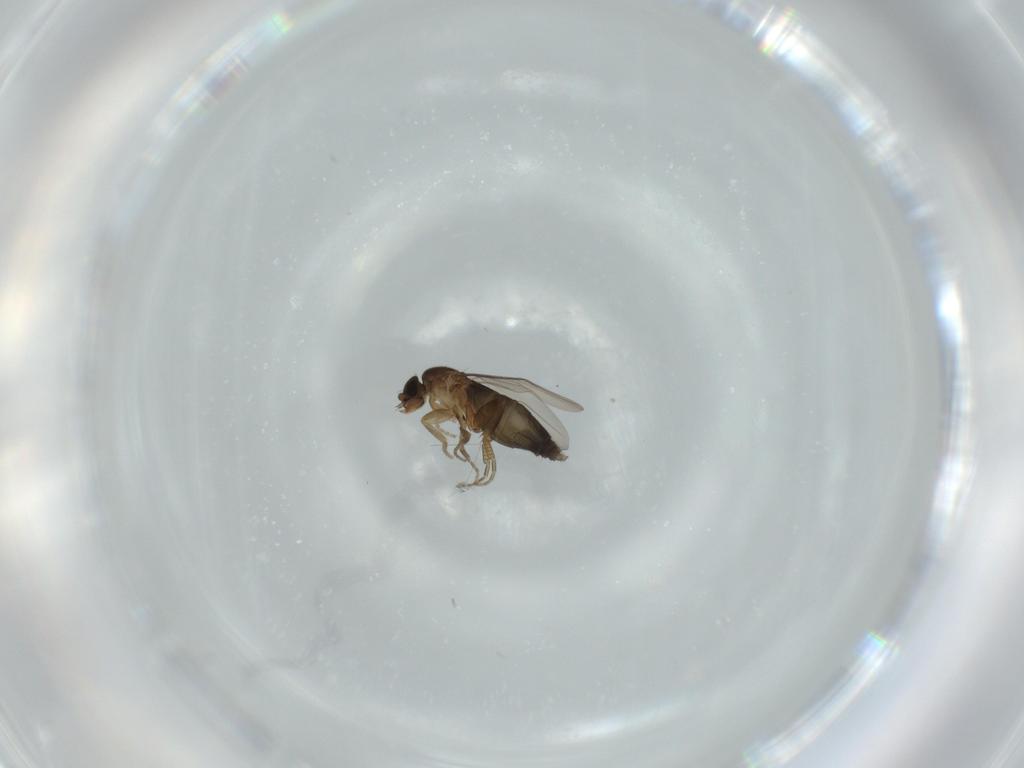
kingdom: Animalia
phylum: Arthropoda
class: Insecta
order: Diptera
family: Phoridae
